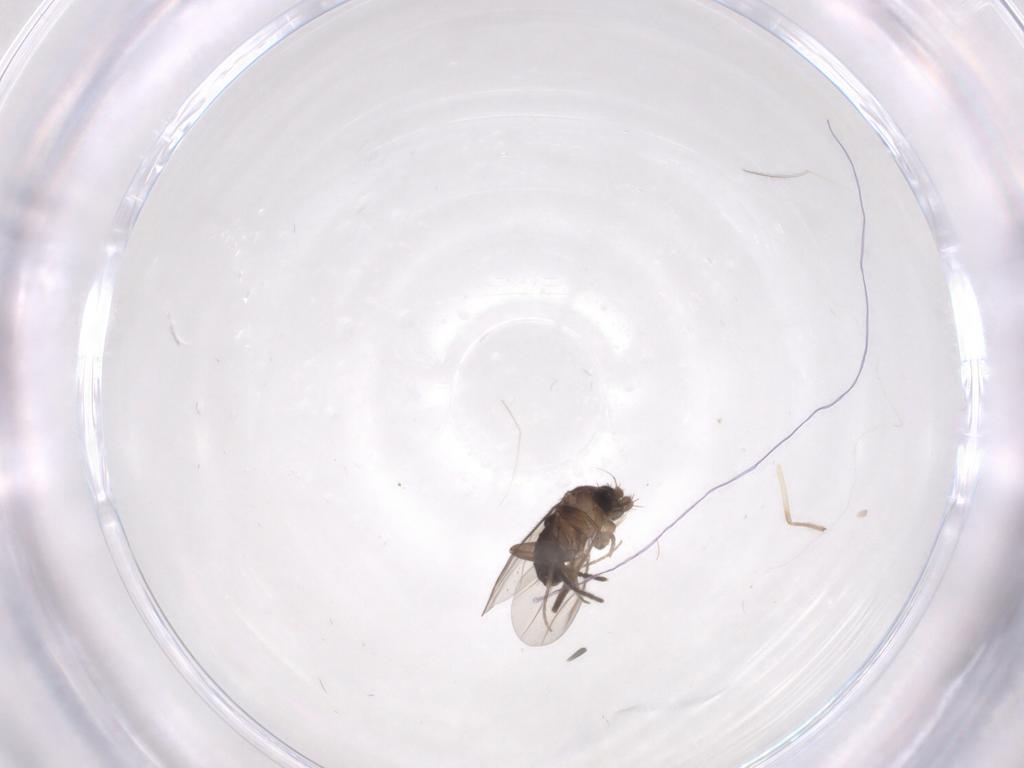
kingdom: Animalia
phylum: Arthropoda
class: Insecta
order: Diptera
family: Phoridae
